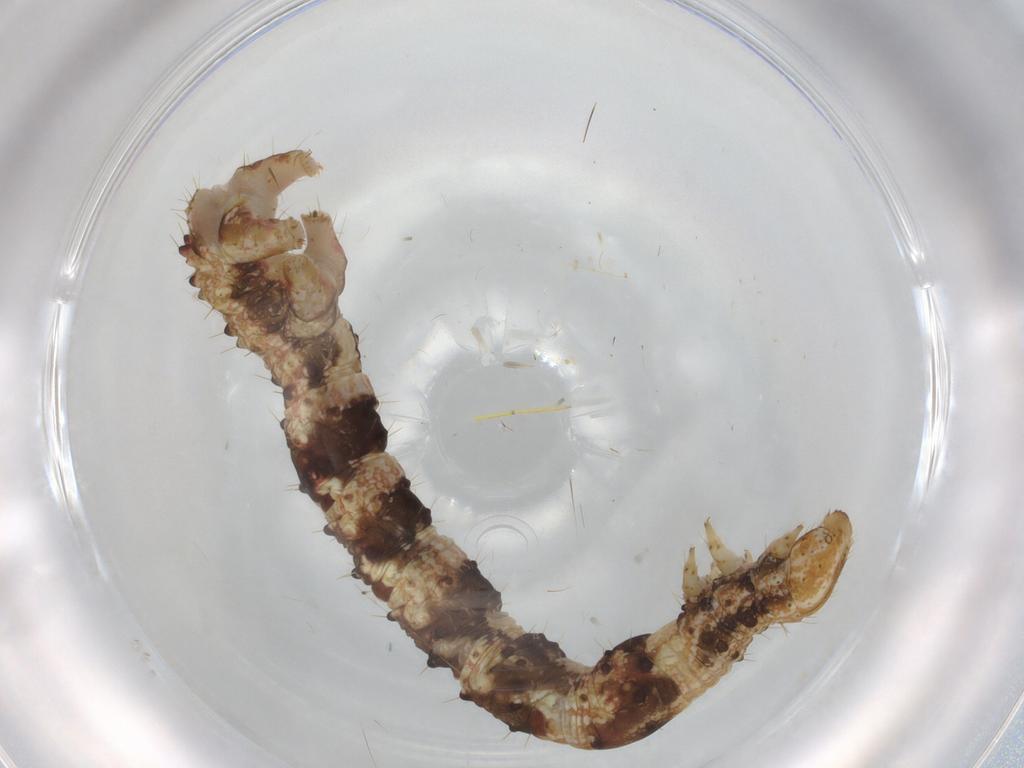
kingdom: Animalia
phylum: Arthropoda
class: Insecta
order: Lepidoptera
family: Geometridae
